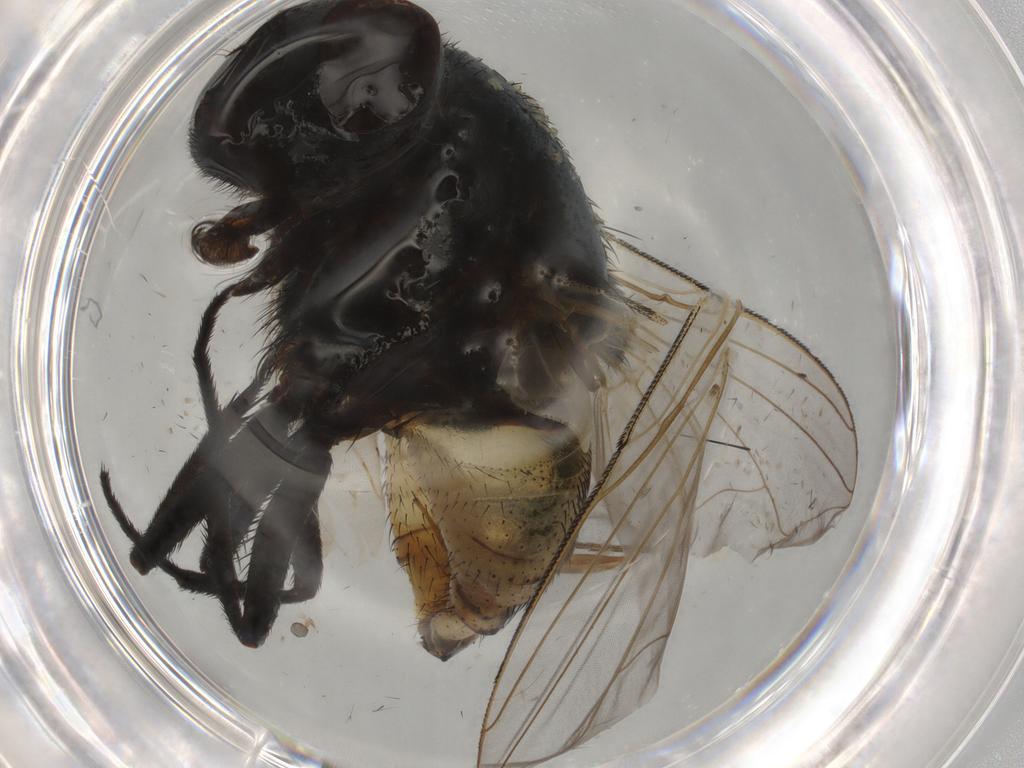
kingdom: Animalia
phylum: Arthropoda
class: Insecta
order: Diptera
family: Muscidae
